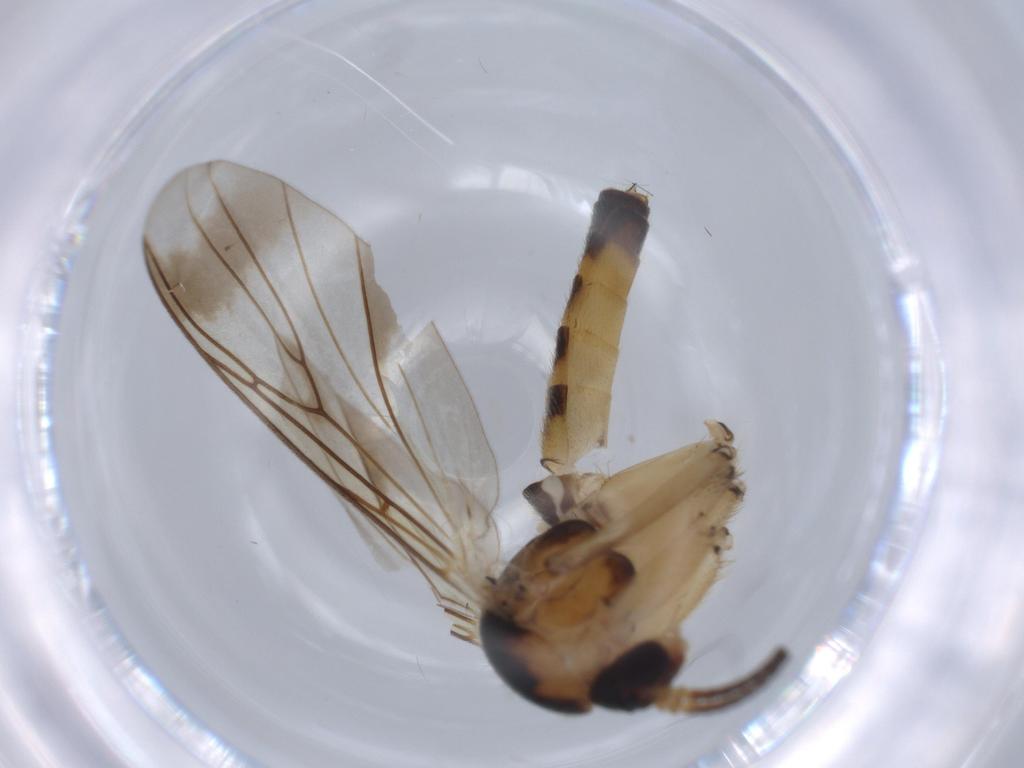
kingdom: Animalia
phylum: Arthropoda
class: Insecta
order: Diptera
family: Mycetophilidae
